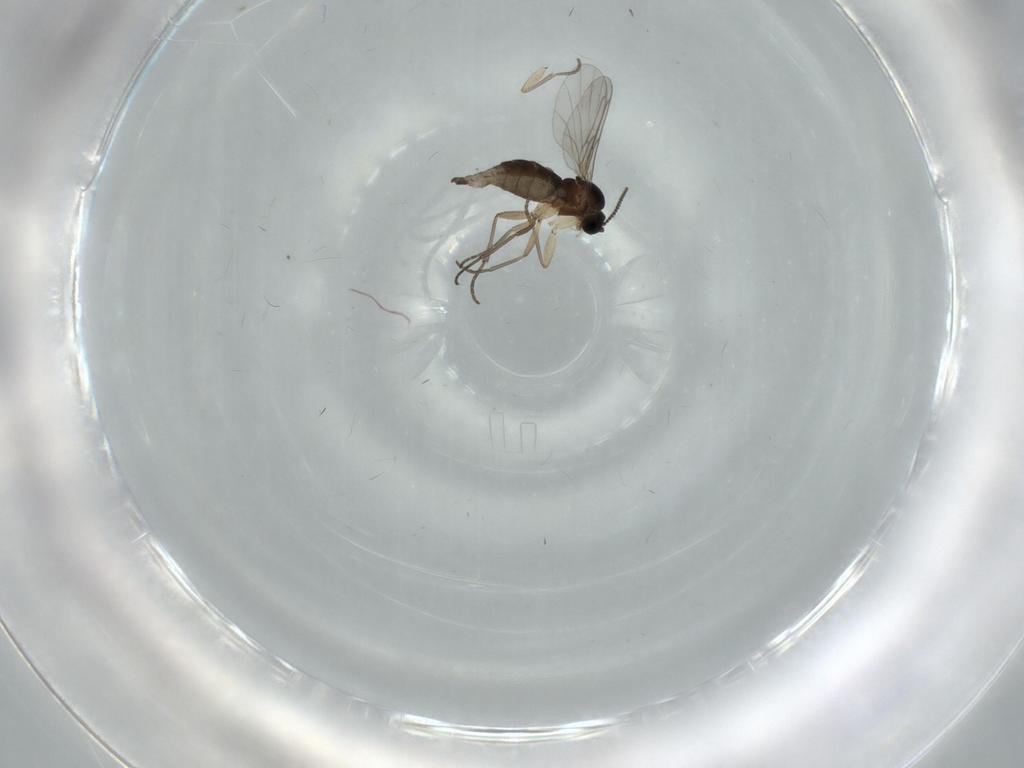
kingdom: Animalia
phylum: Arthropoda
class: Insecta
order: Diptera
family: Sciaridae
